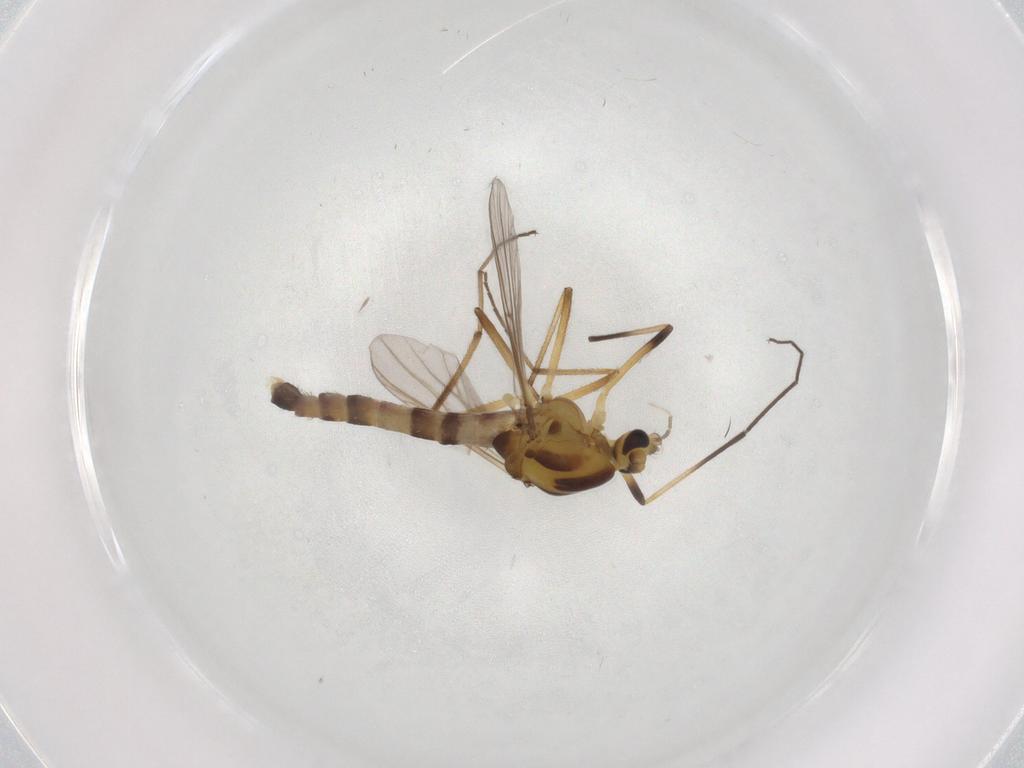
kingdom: Animalia
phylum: Arthropoda
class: Insecta
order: Diptera
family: Chironomidae
